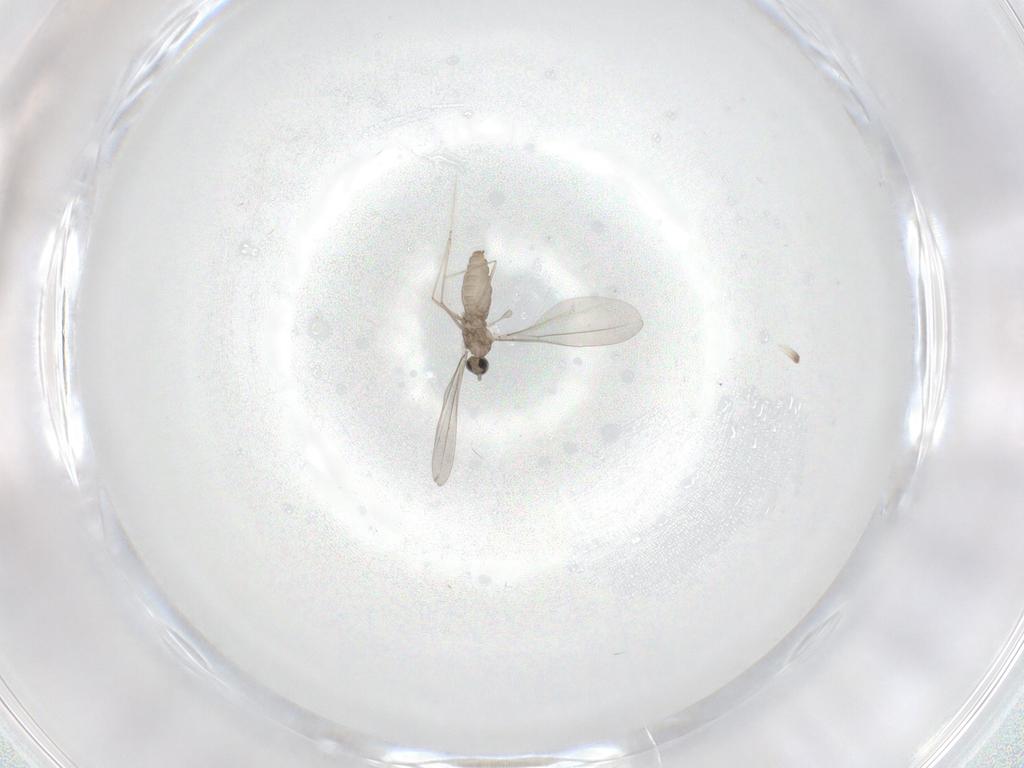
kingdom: Animalia
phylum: Arthropoda
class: Insecta
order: Diptera
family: Cecidomyiidae
